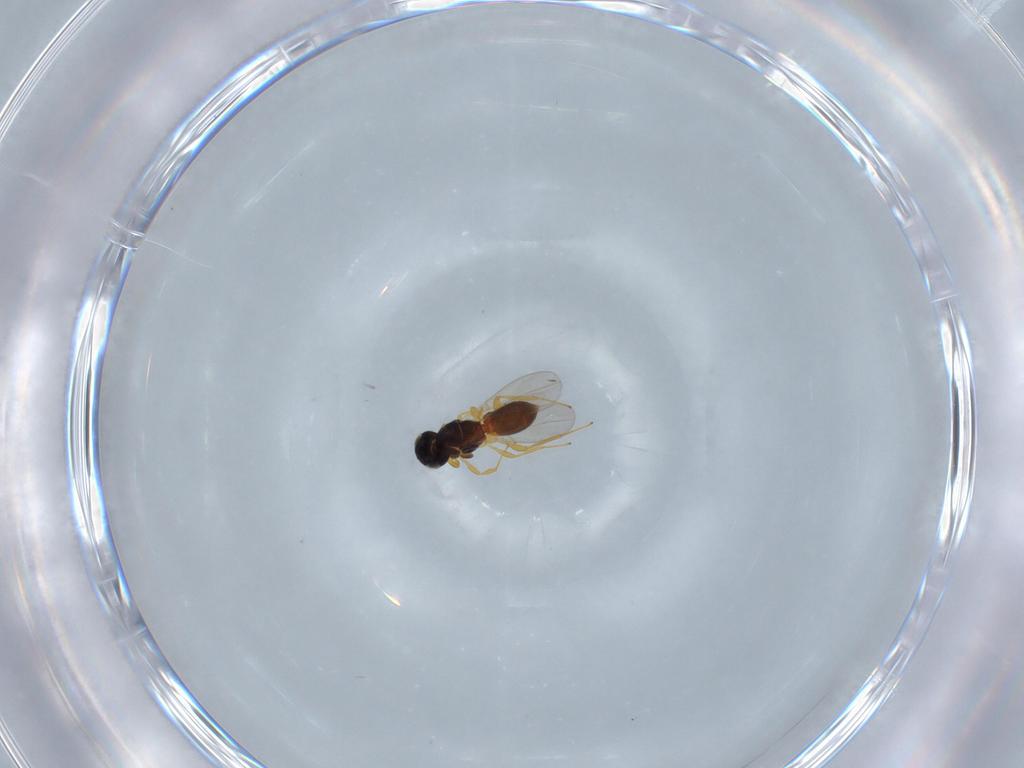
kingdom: Animalia
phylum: Arthropoda
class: Insecta
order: Hymenoptera
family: Platygastridae
